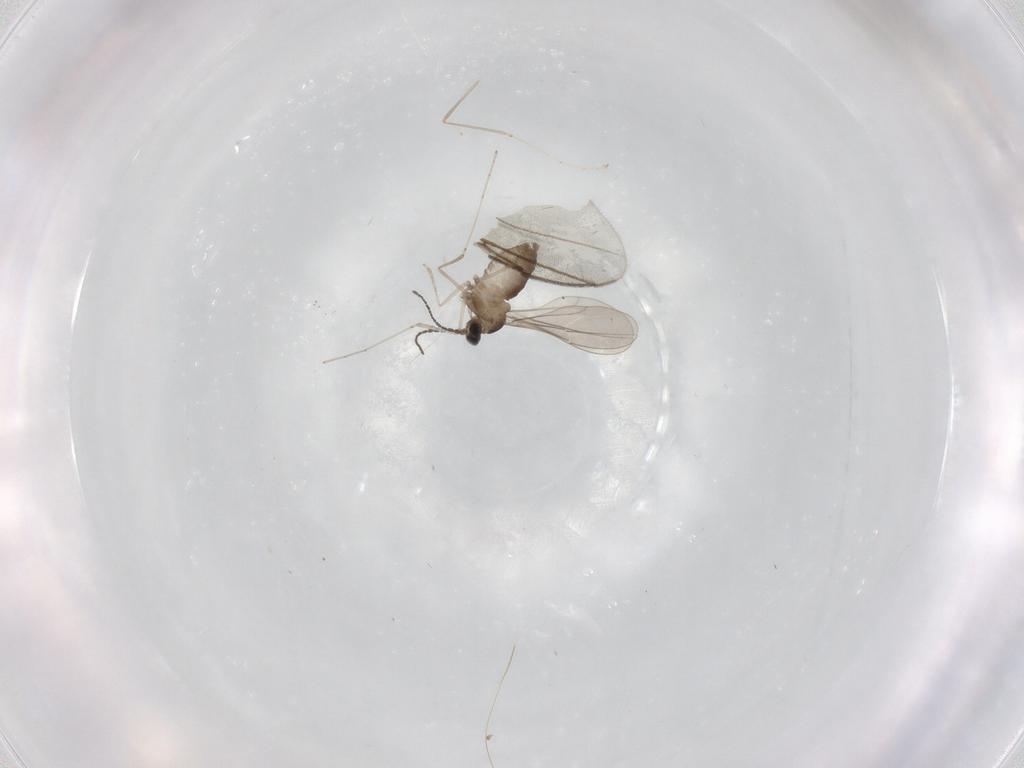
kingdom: Animalia
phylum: Arthropoda
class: Insecta
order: Diptera
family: Cecidomyiidae
